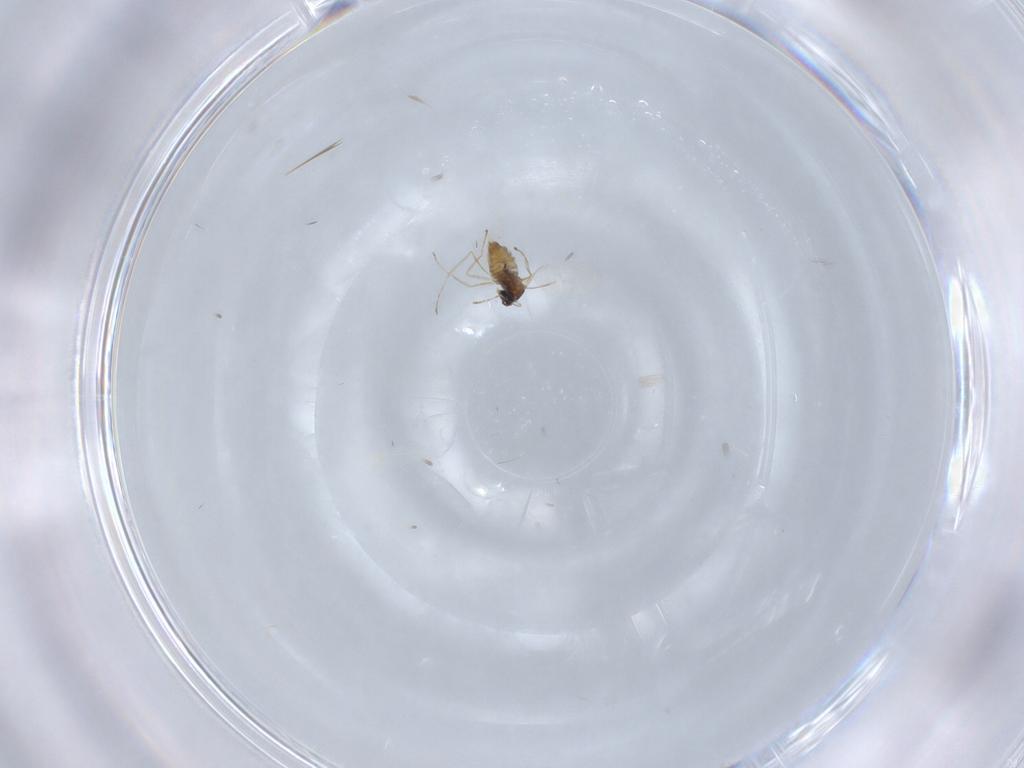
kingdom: Animalia
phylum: Arthropoda
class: Insecta
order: Diptera
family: Cecidomyiidae
